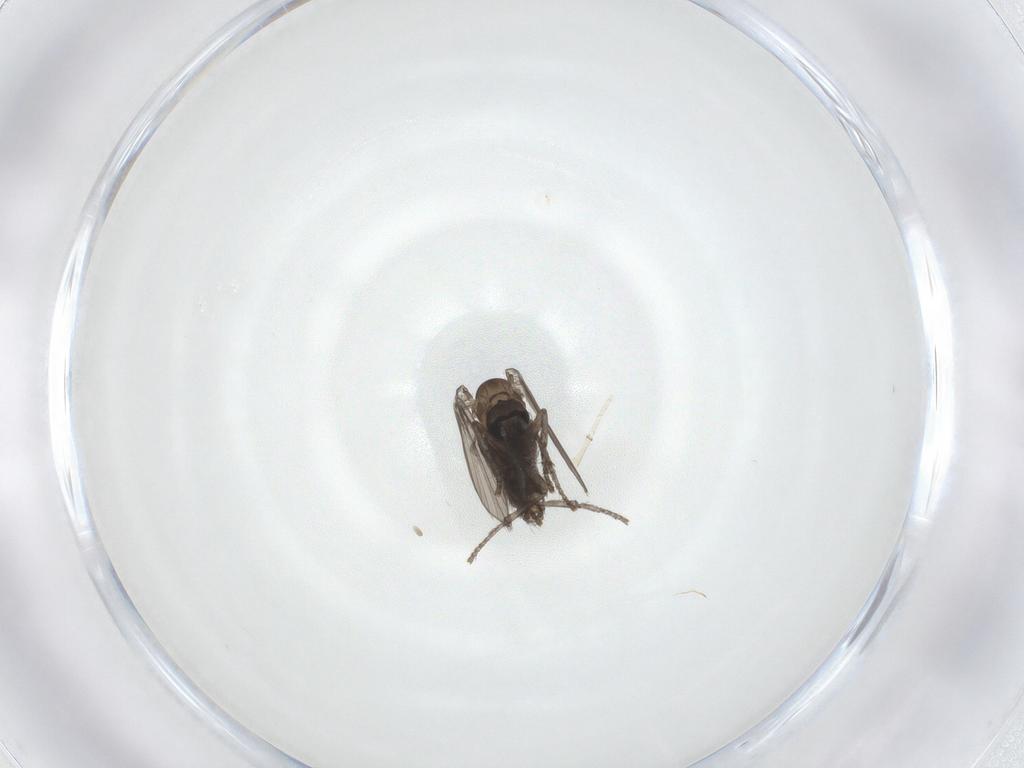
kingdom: Animalia
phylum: Arthropoda
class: Insecta
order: Diptera
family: Psychodidae
